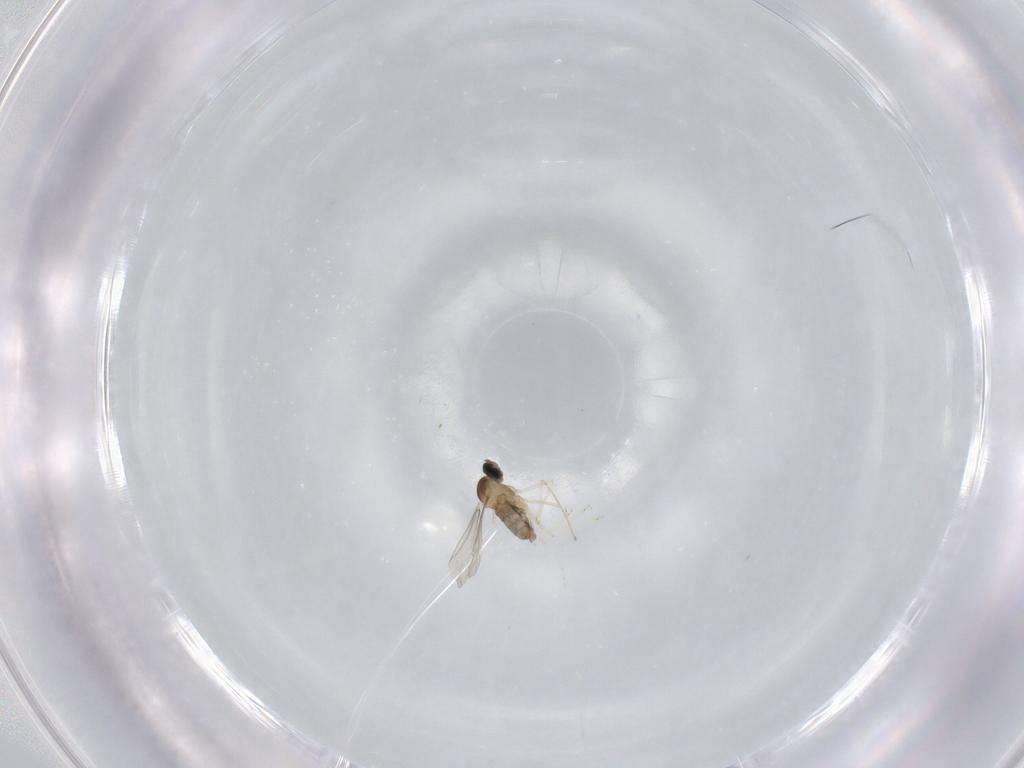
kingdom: Animalia
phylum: Arthropoda
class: Insecta
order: Diptera
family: Cecidomyiidae
